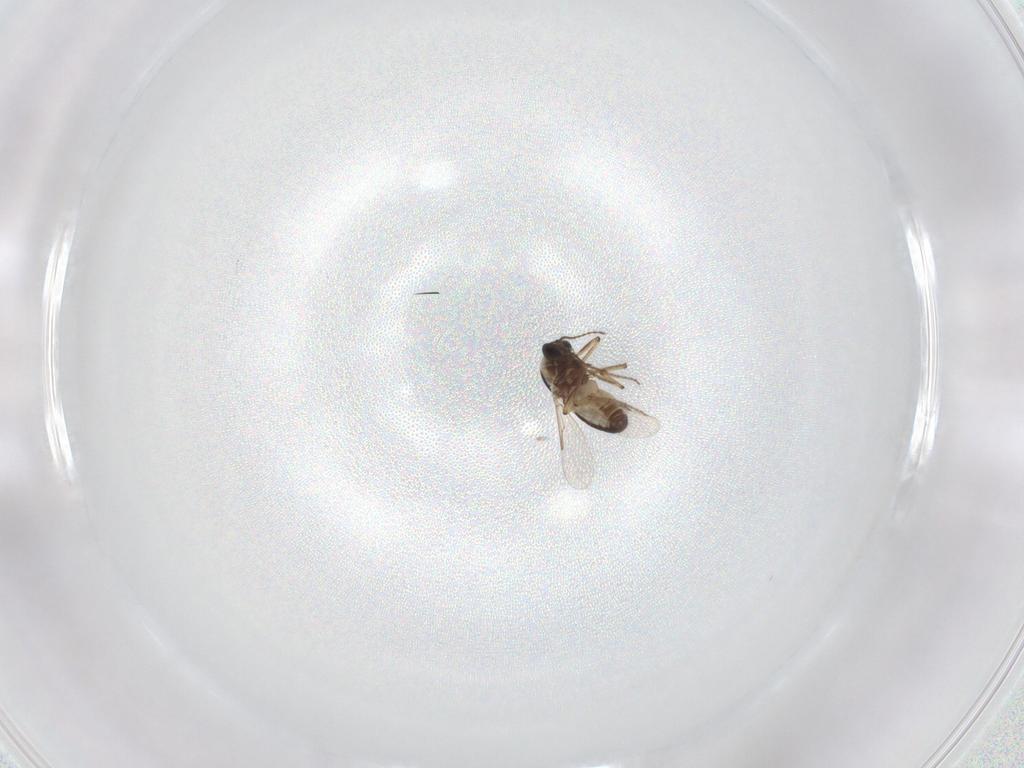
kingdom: Animalia
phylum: Arthropoda
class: Insecta
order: Diptera
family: Ceratopogonidae
